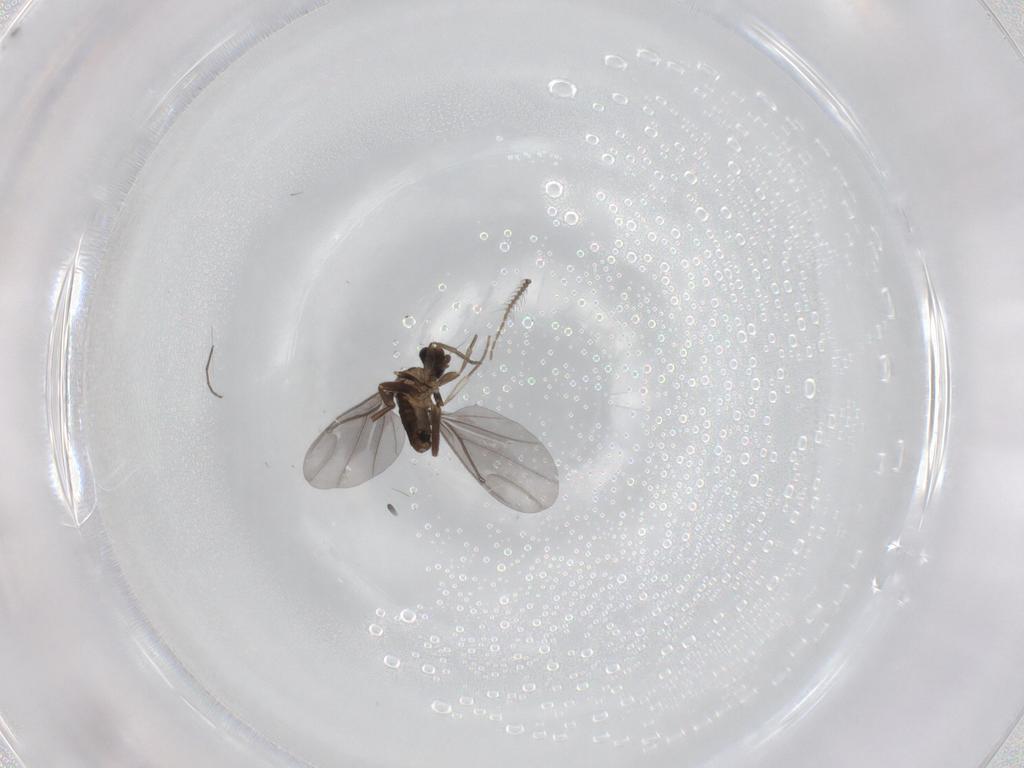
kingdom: Animalia
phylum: Arthropoda
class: Insecta
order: Diptera
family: Phoridae
